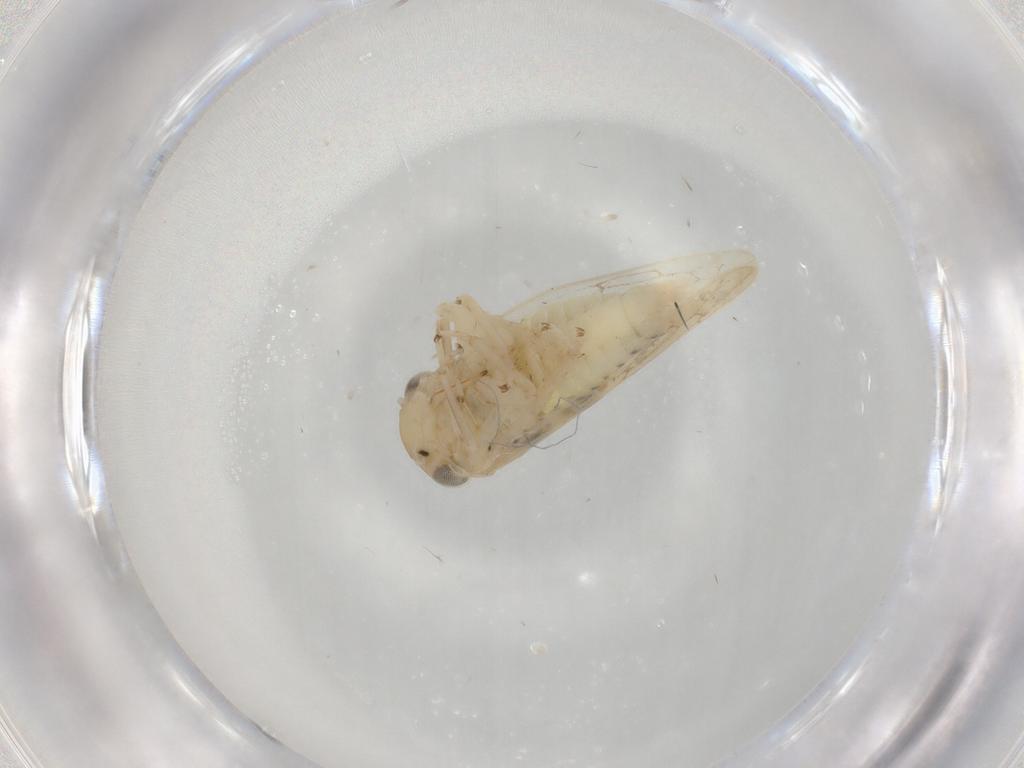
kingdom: Animalia
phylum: Arthropoda
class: Insecta
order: Hemiptera
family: Cicadellidae
